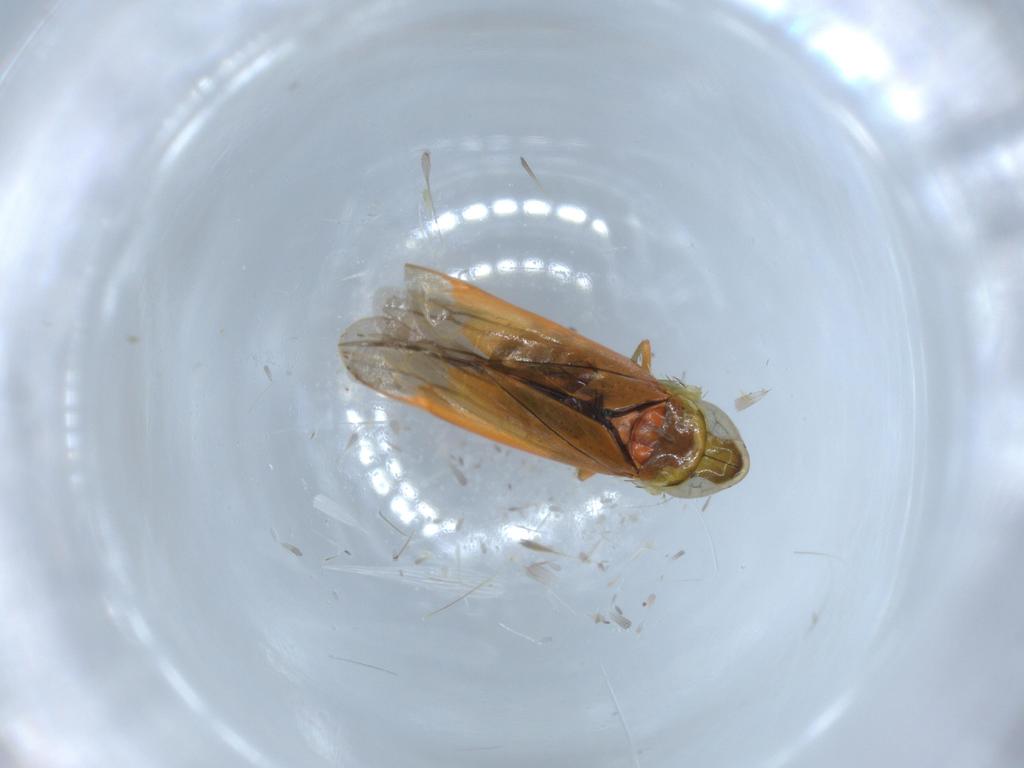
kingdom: Animalia
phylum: Arthropoda
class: Insecta
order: Hemiptera
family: Cicadellidae
